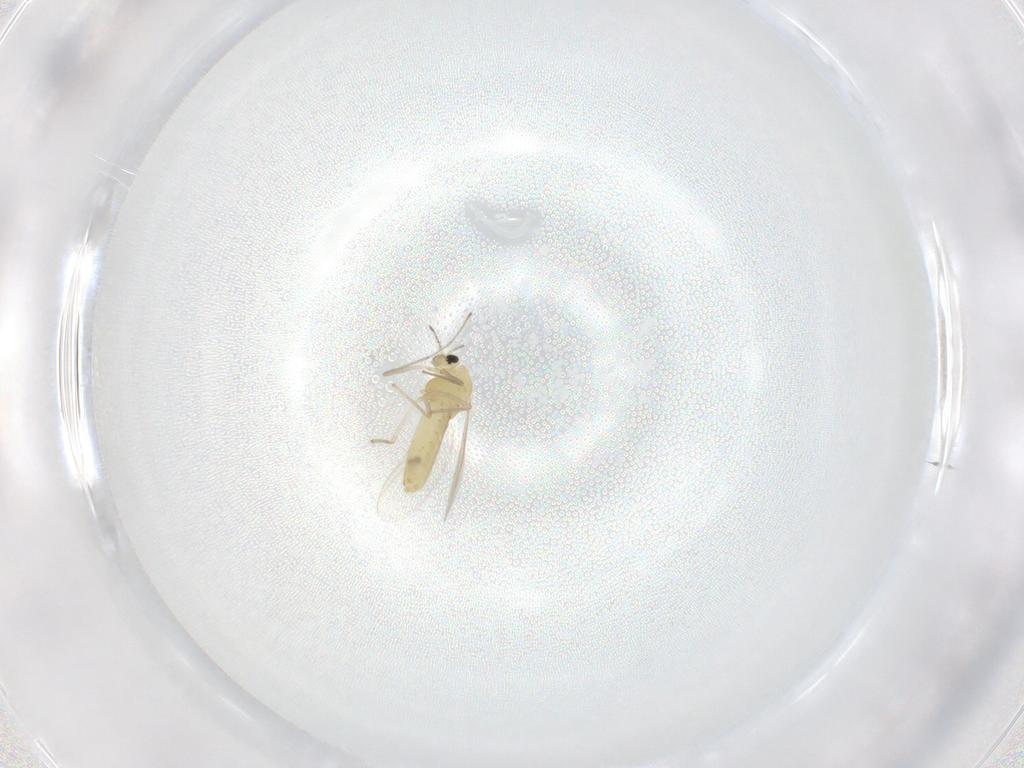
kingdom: Animalia
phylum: Arthropoda
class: Insecta
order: Diptera
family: Chironomidae
